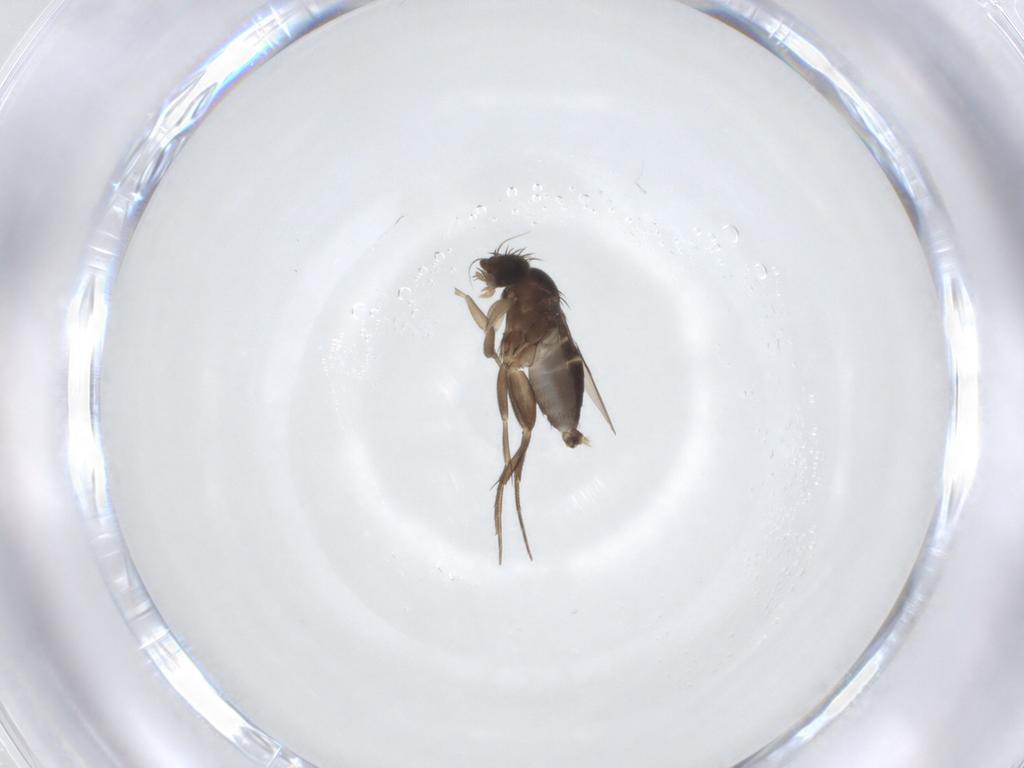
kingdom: Animalia
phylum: Arthropoda
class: Insecta
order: Diptera
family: Phoridae
